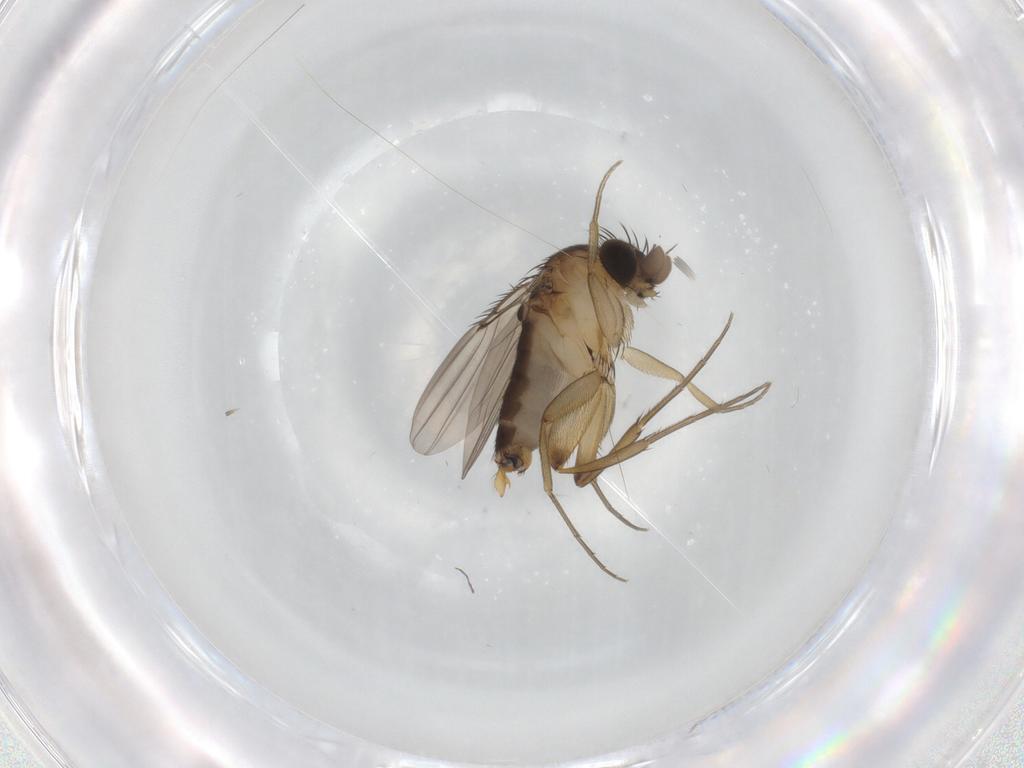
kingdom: Animalia
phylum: Arthropoda
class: Insecta
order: Diptera
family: Phoridae
